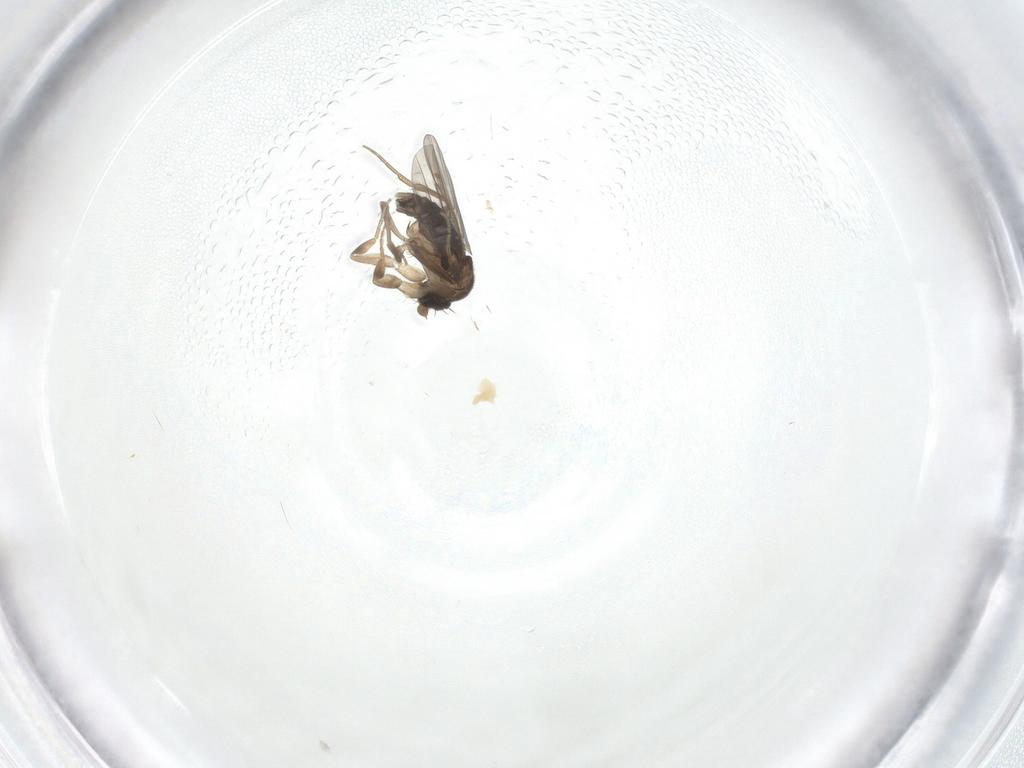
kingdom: Animalia
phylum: Arthropoda
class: Insecta
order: Diptera
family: Phoridae
